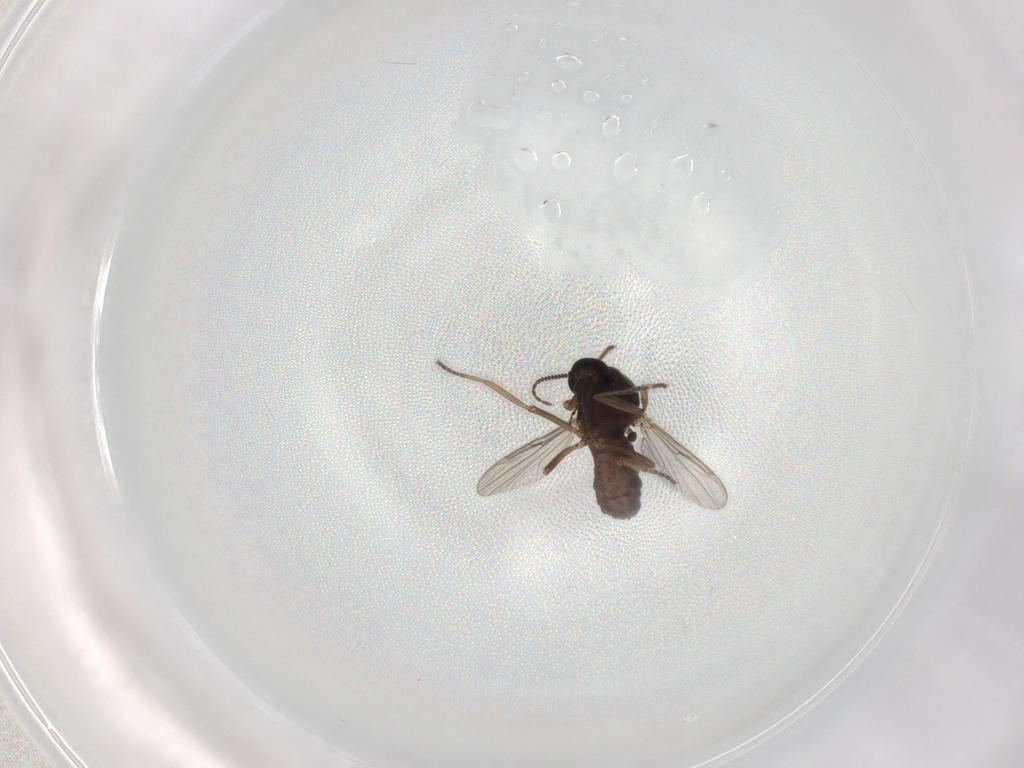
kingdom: Animalia
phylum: Arthropoda
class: Insecta
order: Diptera
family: Ceratopogonidae
